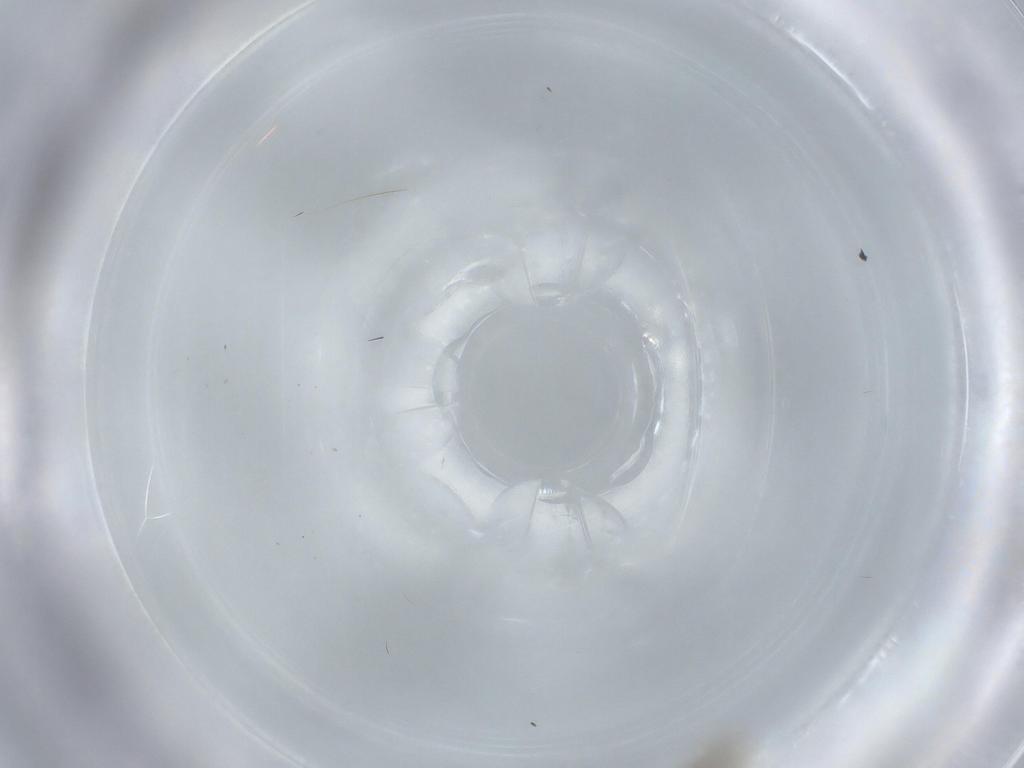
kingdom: Animalia
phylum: Arthropoda
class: Insecta
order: Diptera
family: Cecidomyiidae
